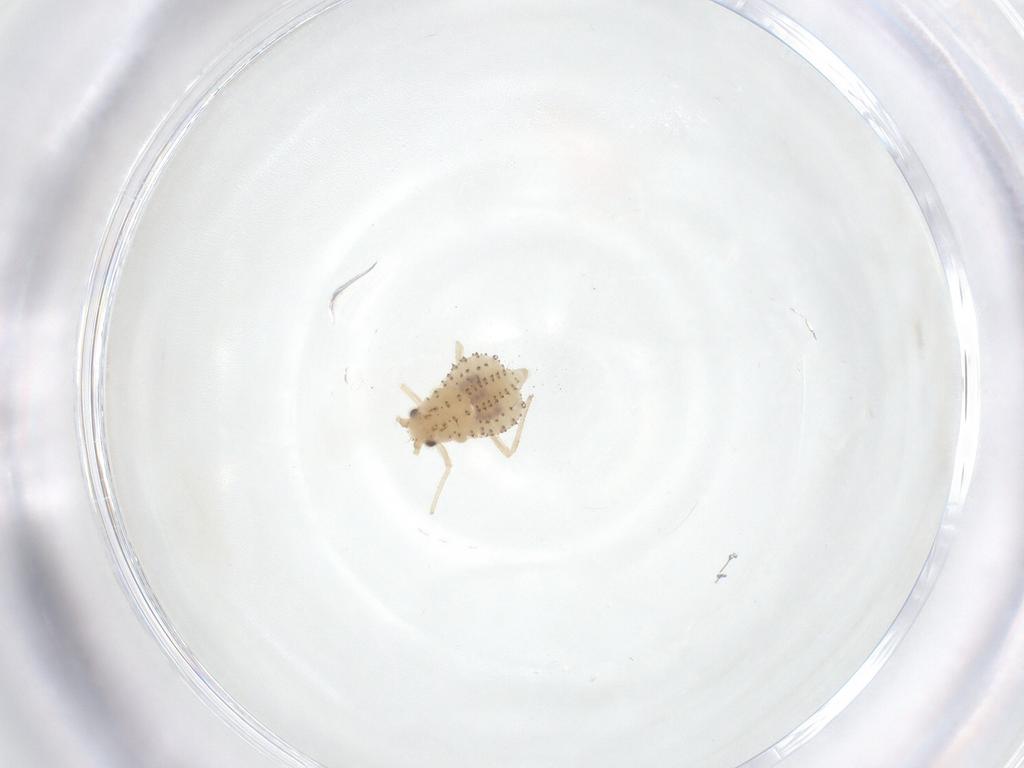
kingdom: Animalia
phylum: Arthropoda
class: Insecta
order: Hemiptera
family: Aphididae
